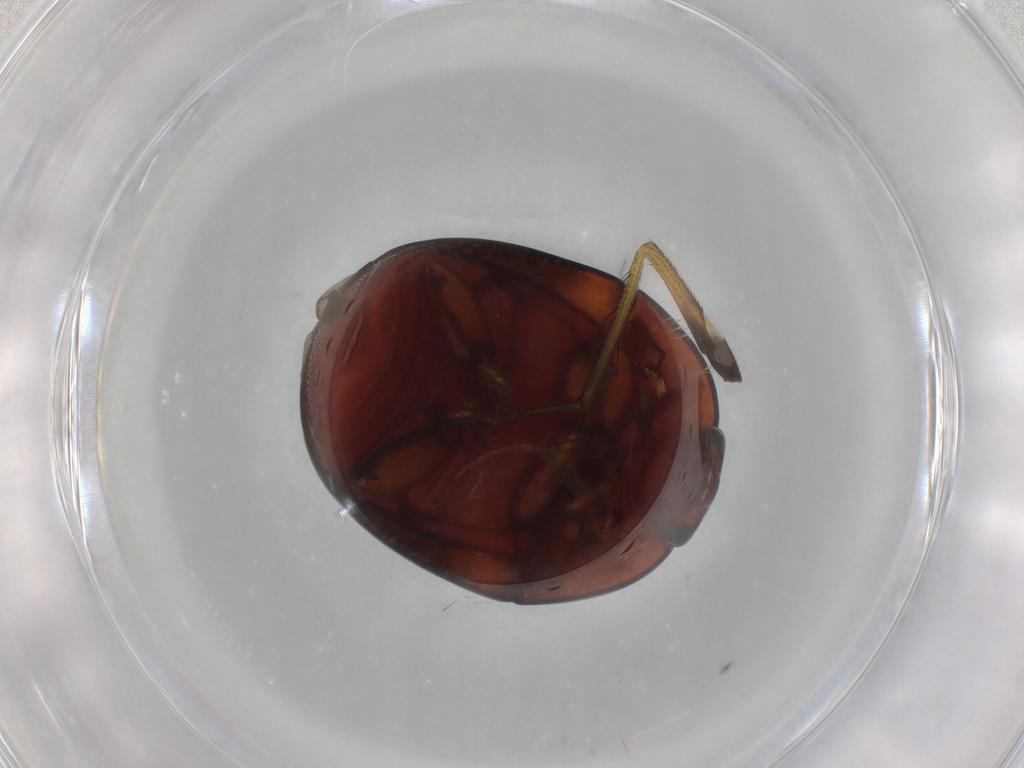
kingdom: Animalia
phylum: Arthropoda
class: Insecta
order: Coleoptera
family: Nitidulidae
